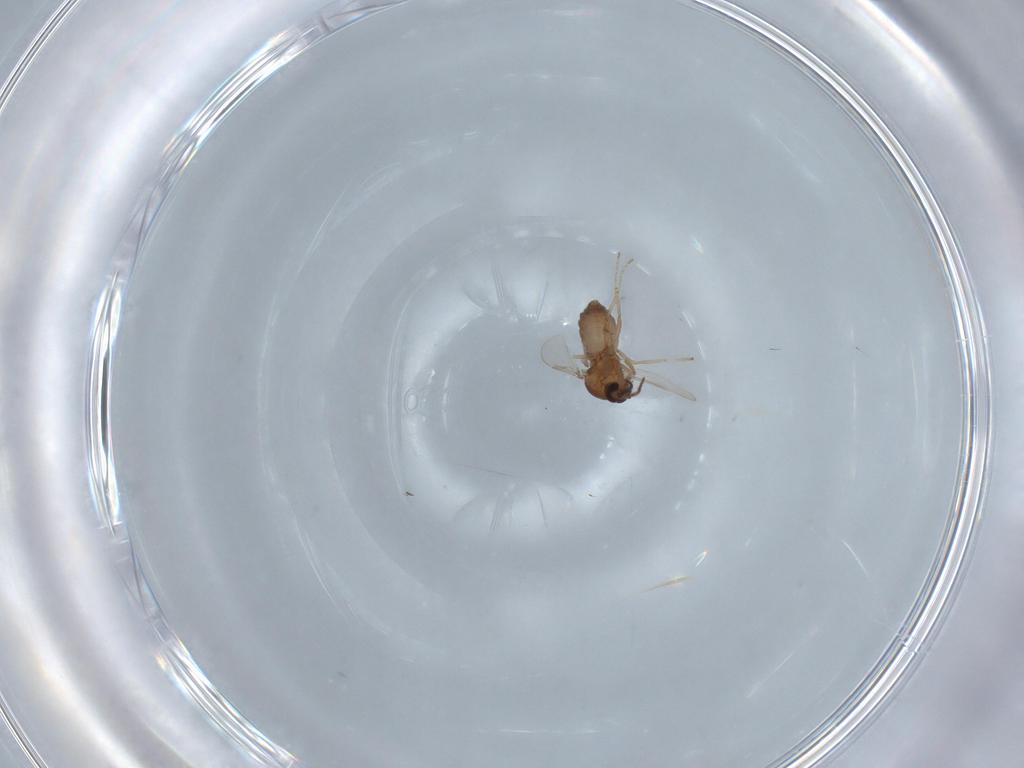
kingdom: Animalia
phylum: Arthropoda
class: Insecta
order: Diptera
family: Ceratopogonidae
